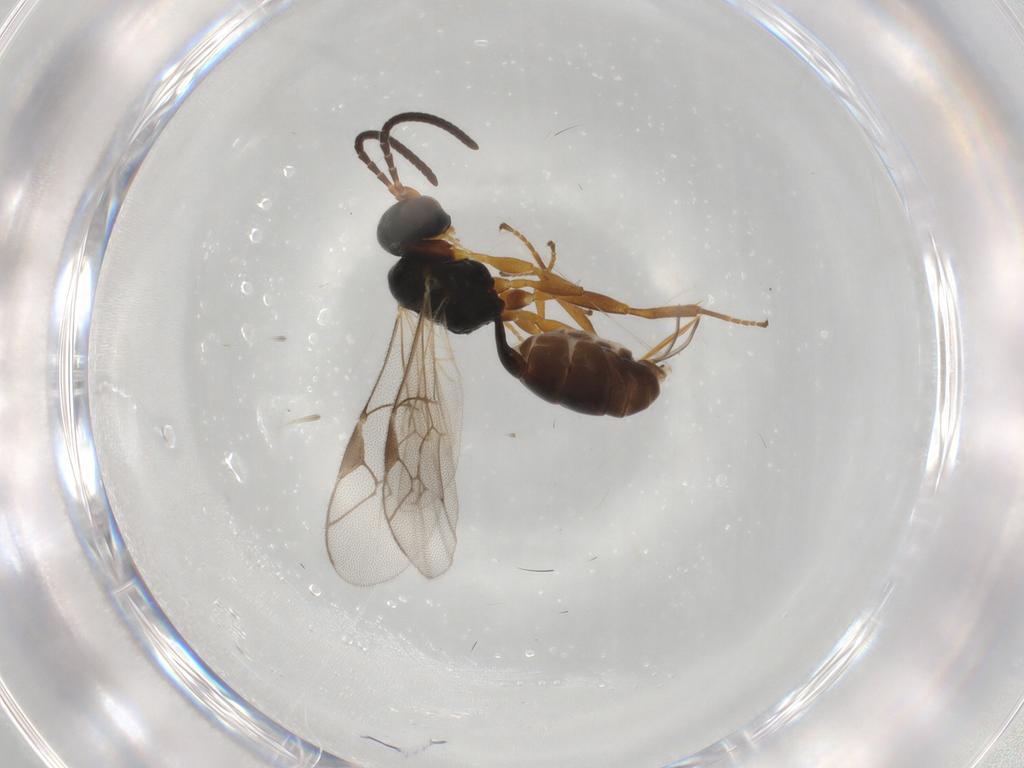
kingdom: Animalia
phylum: Arthropoda
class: Insecta
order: Hymenoptera
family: Ichneumonidae
